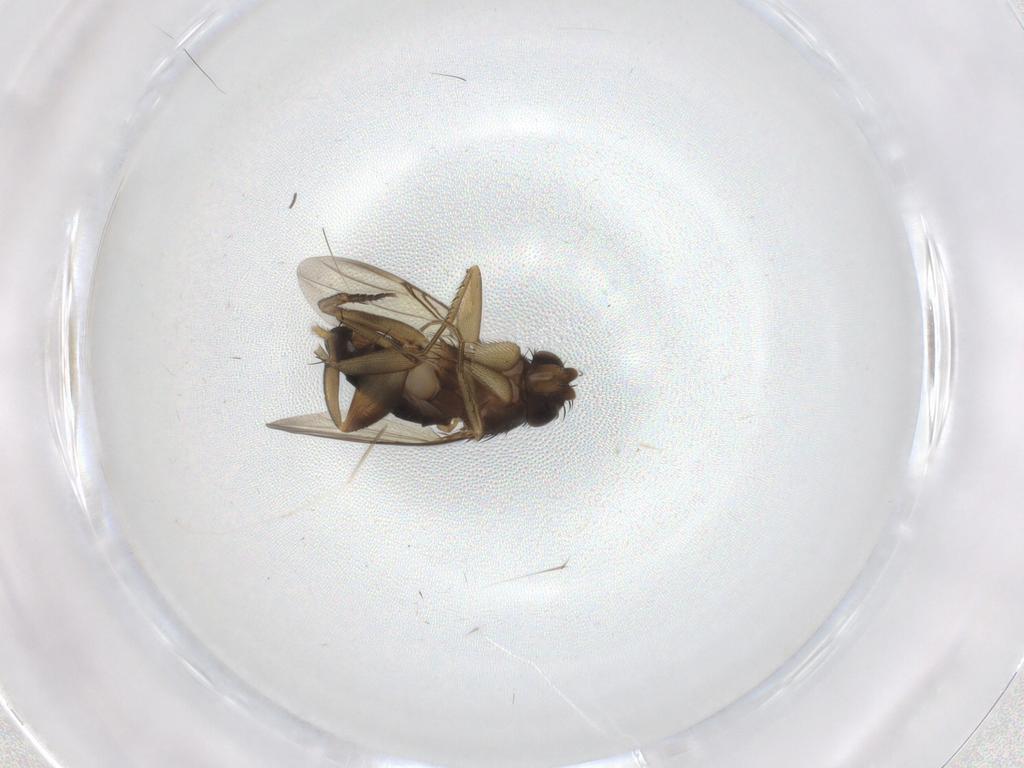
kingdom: Animalia
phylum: Arthropoda
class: Insecta
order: Diptera
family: Phoridae
